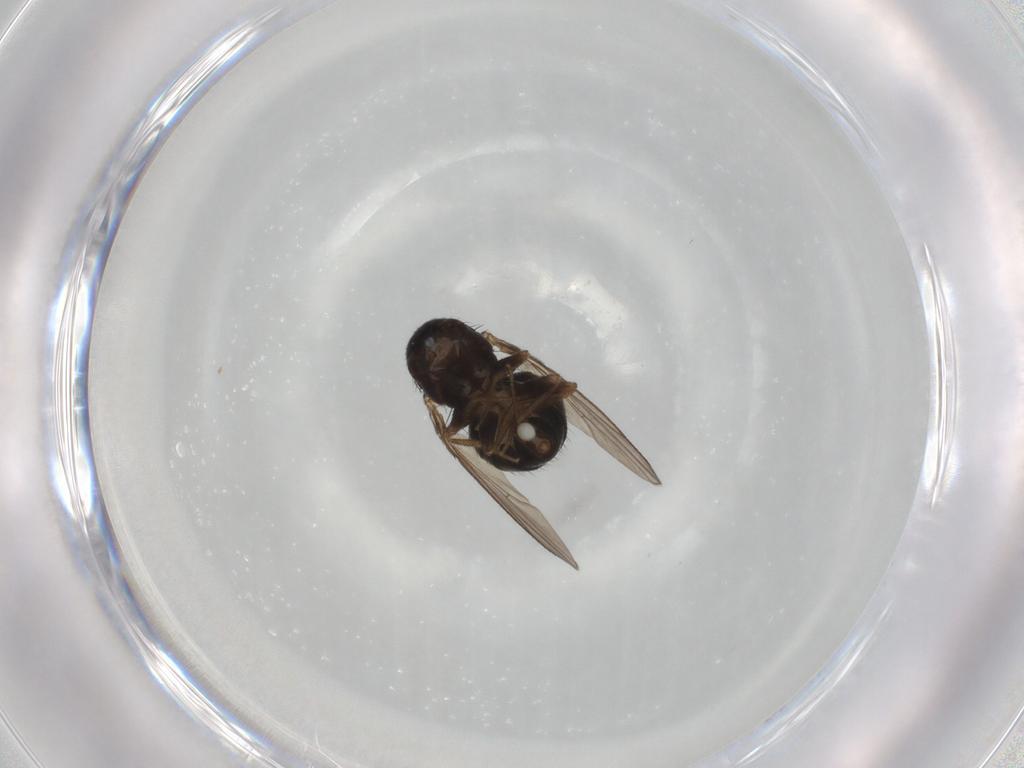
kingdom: Animalia
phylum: Arthropoda
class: Insecta
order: Diptera
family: Drosophilidae
